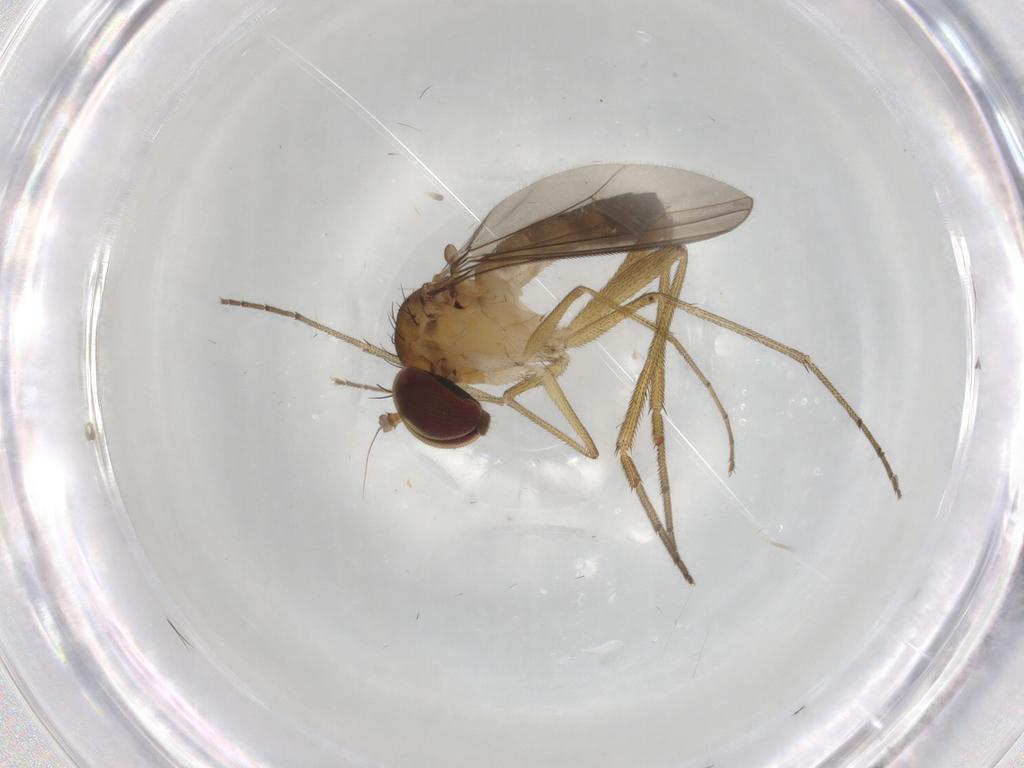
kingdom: Animalia
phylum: Arthropoda
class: Insecta
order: Diptera
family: Cecidomyiidae
